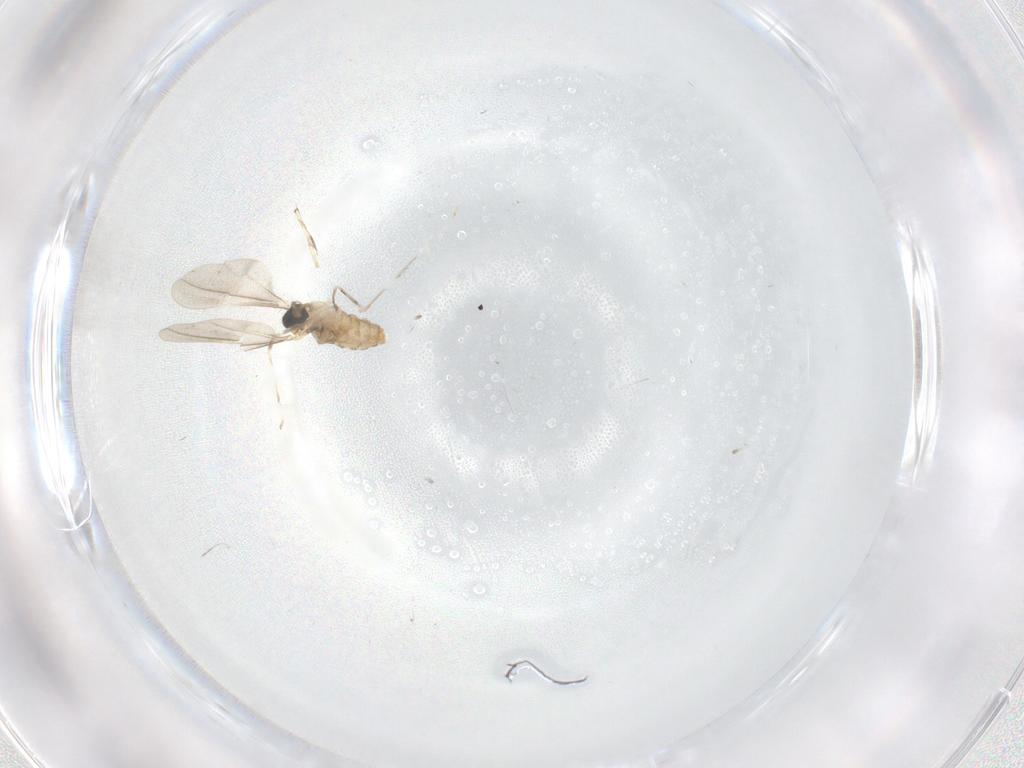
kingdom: Animalia
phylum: Arthropoda
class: Insecta
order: Diptera
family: Cecidomyiidae
